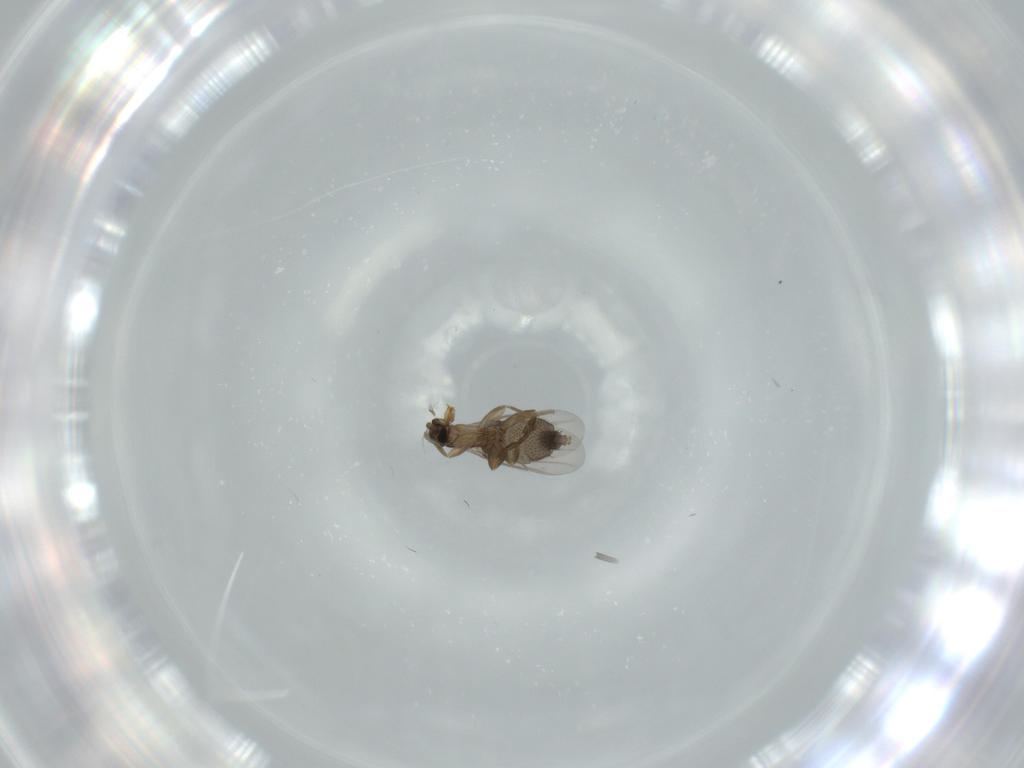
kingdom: Animalia
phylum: Arthropoda
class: Insecta
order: Diptera
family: Phoridae
